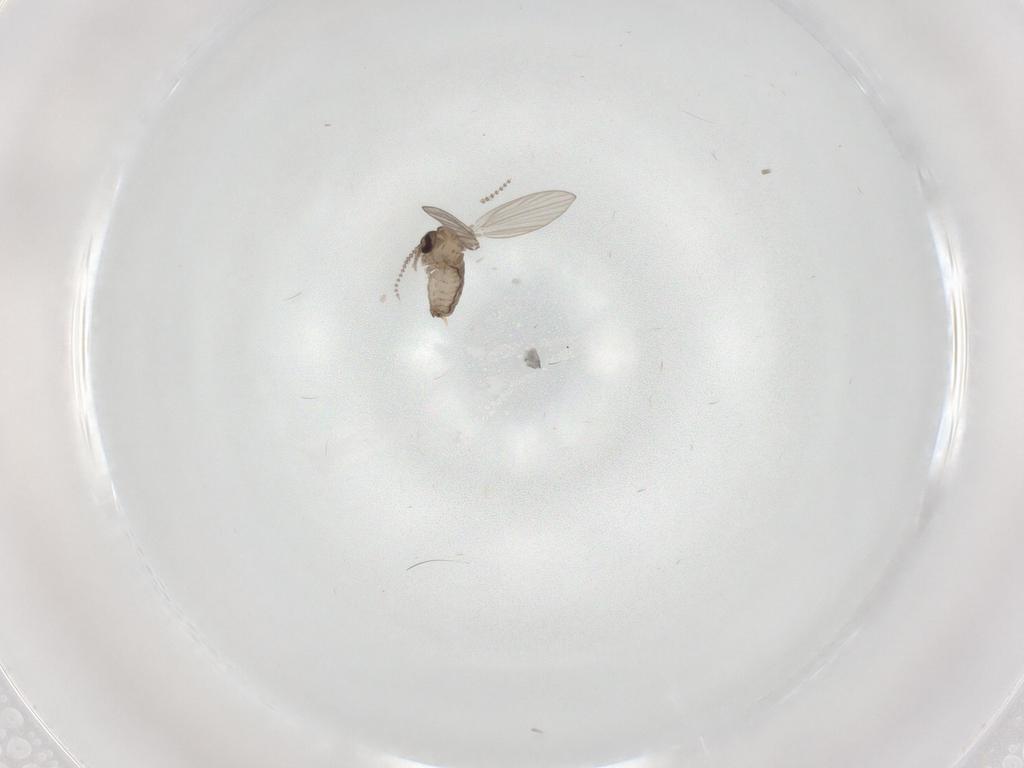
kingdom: Animalia
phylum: Arthropoda
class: Insecta
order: Diptera
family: Psychodidae
